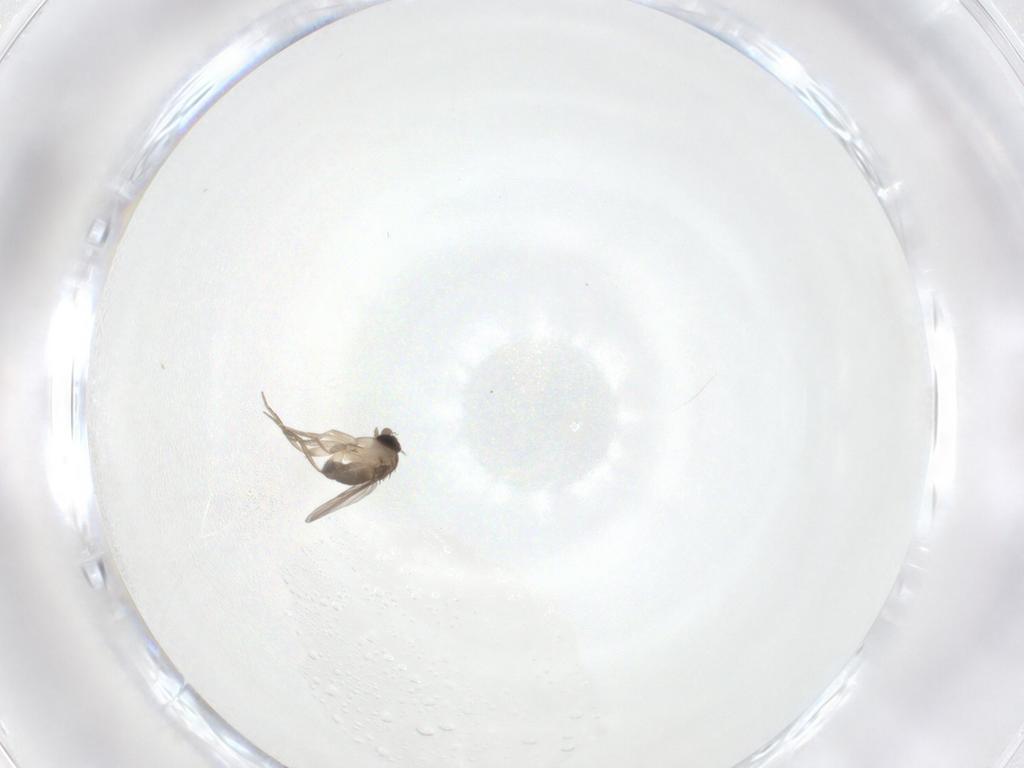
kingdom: Animalia
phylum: Arthropoda
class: Insecta
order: Diptera
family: Phoridae
